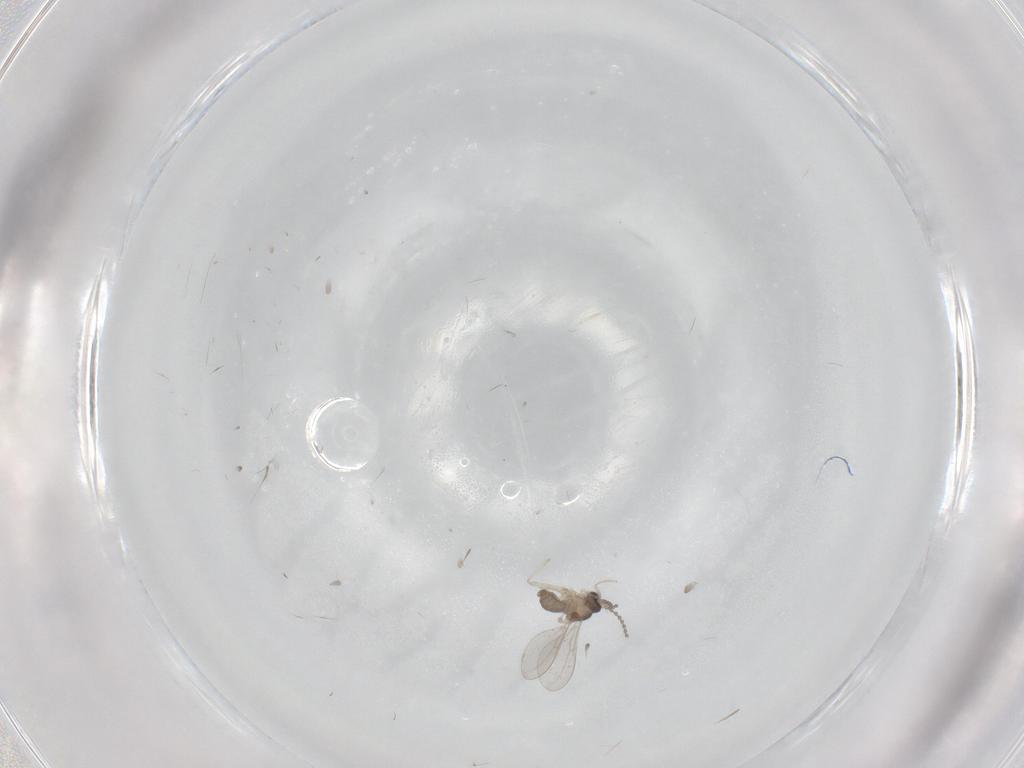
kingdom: Animalia
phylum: Arthropoda
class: Insecta
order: Diptera
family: Cecidomyiidae
